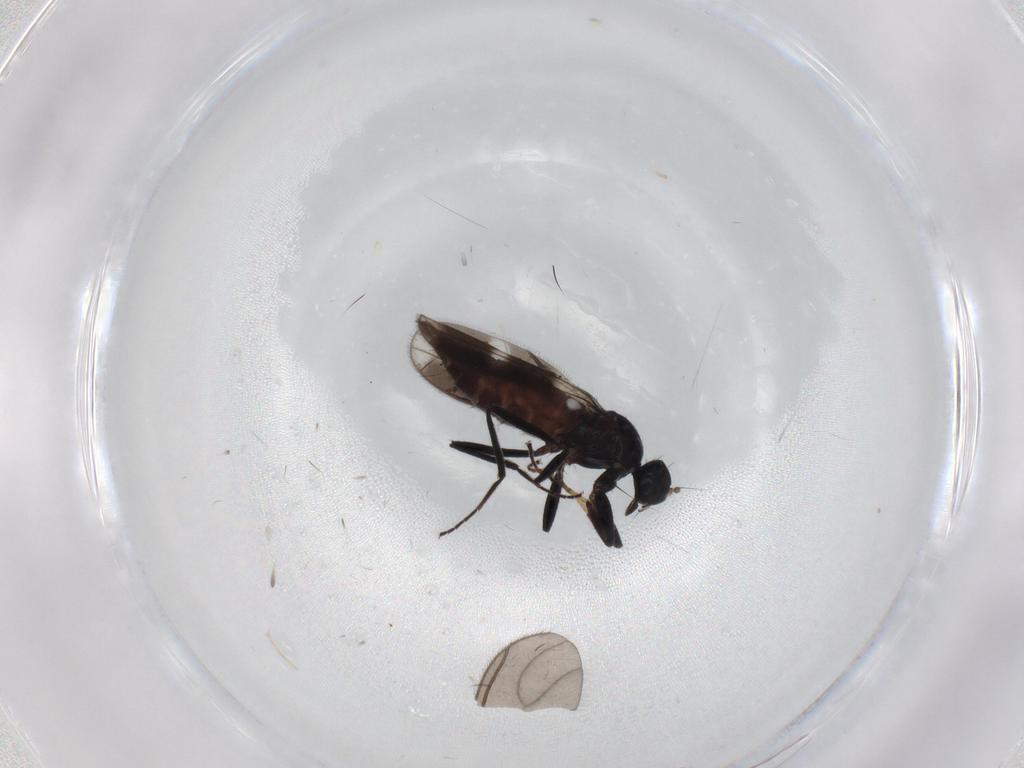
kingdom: Animalia
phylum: Arthropoda
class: Insecta
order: Diptera
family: Hybotidae
